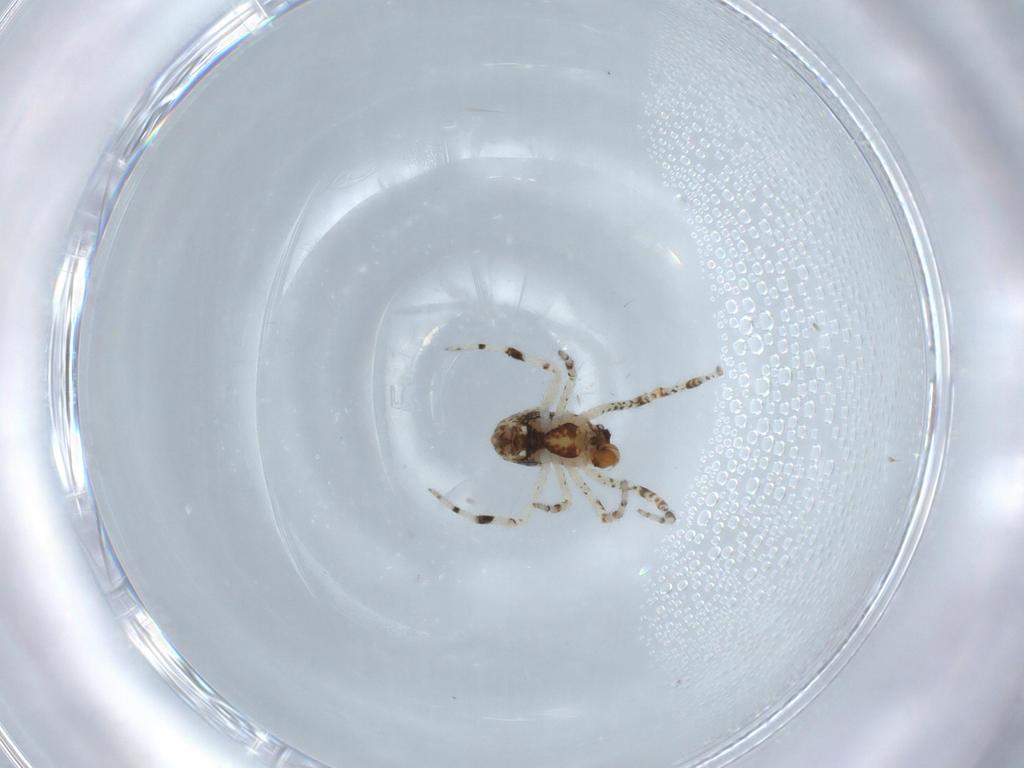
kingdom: Animalia
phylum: Arthropoda
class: Arachnida
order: Araneae
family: Theridiidae
